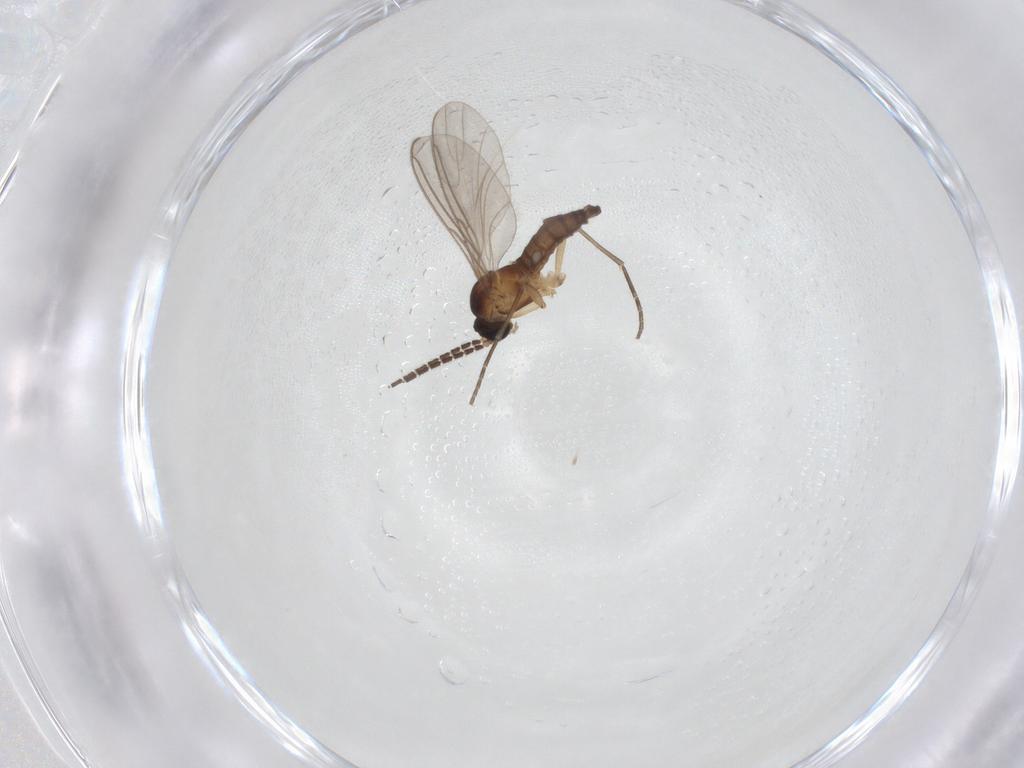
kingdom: Animalia
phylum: Arthropoda
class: Insecta
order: Diptera
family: Sciaridae
